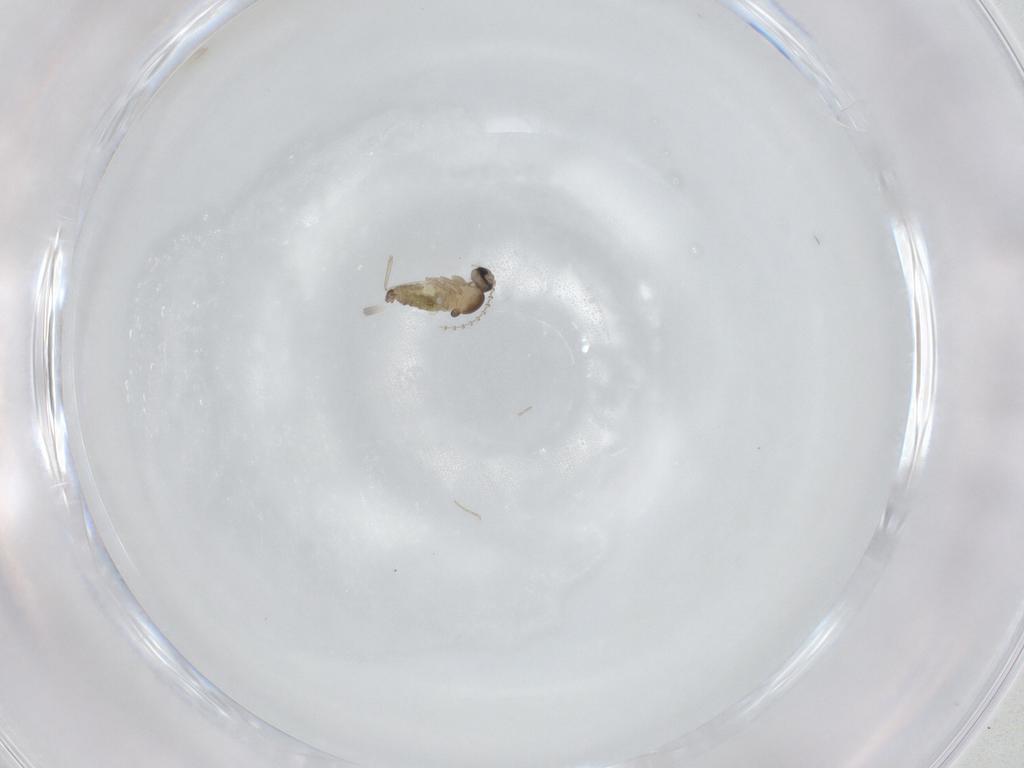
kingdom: Animalia
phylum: Arthropoda
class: Insecta
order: Diptera
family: Cecidomyiidae
